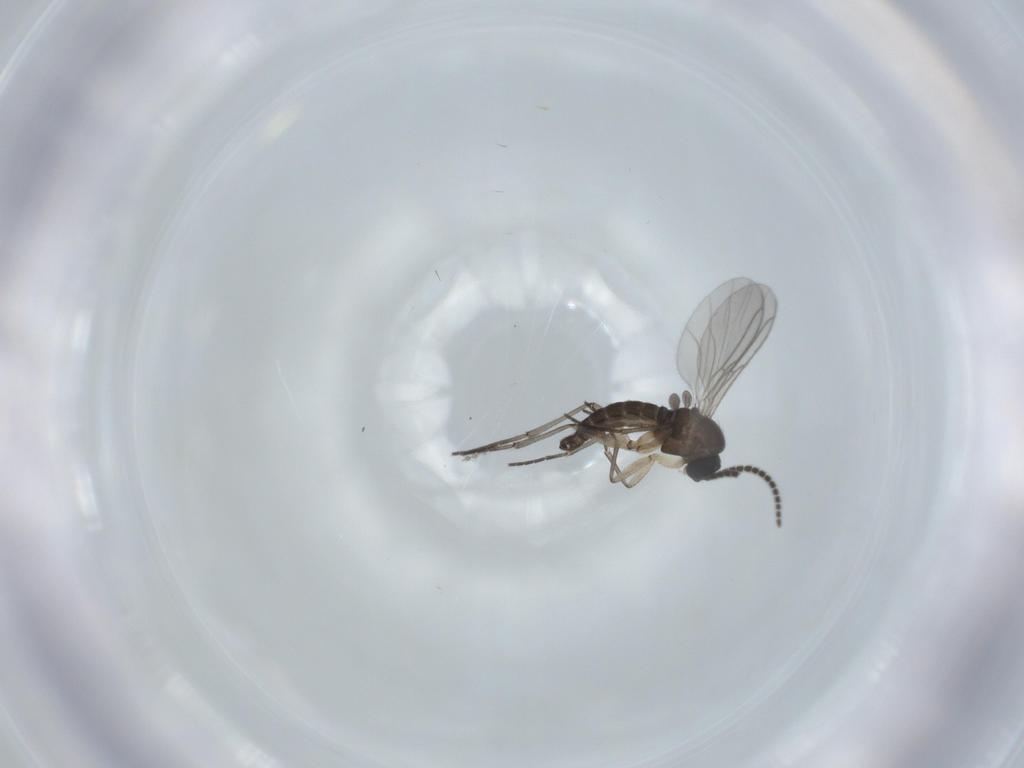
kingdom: Animalia
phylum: Arthropoda
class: Insecta
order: Diptera
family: Sciaridae
